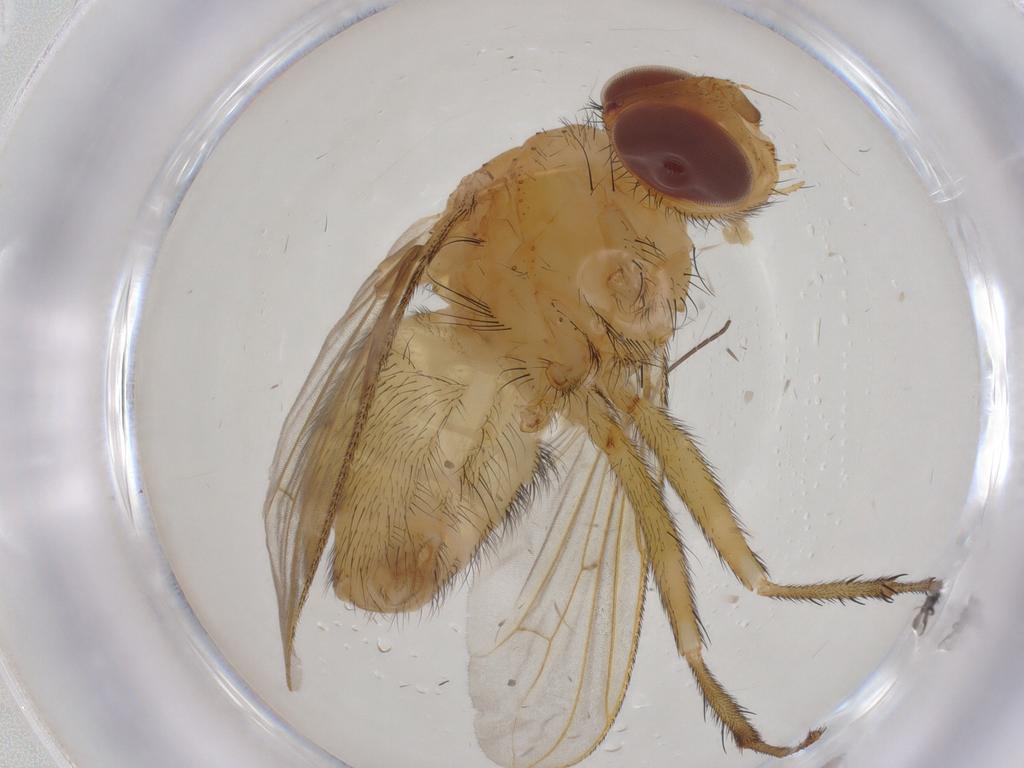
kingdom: Animalia
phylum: Arthropoda
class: Insecta
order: Diptera
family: Tachinidae
